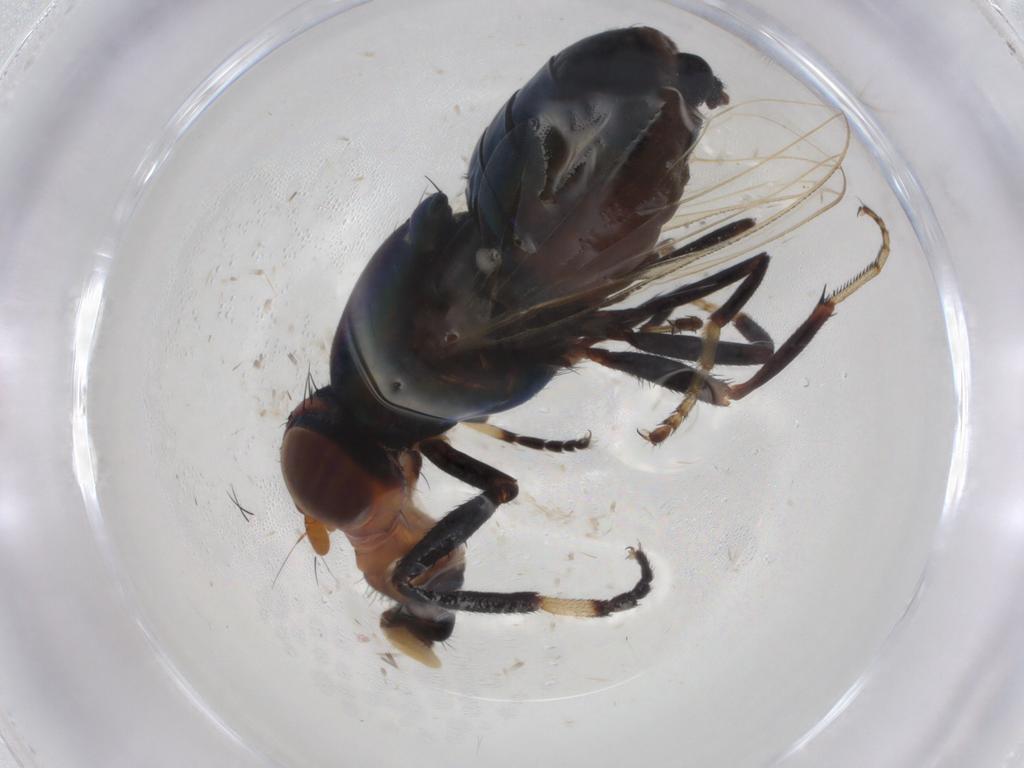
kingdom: Animalia
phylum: Arthropoda
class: Insecta
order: Diptera
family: Ulidiidae
